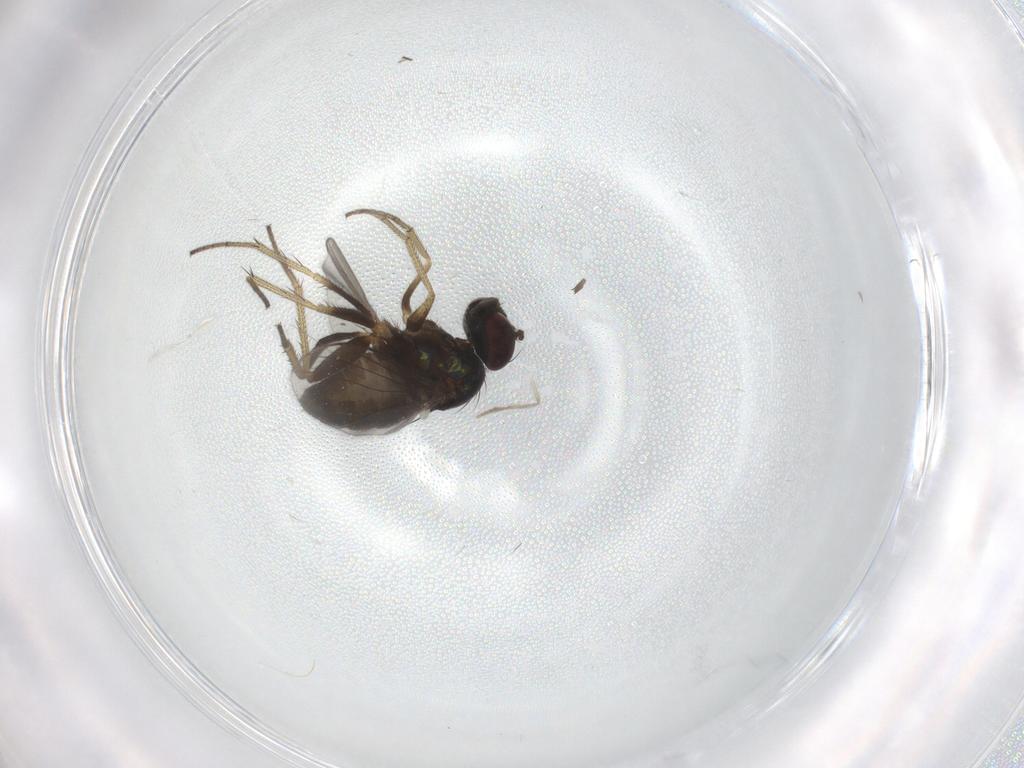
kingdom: Animalia
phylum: Arthropoda
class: Insecta
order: Diptera
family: Psychodidae
